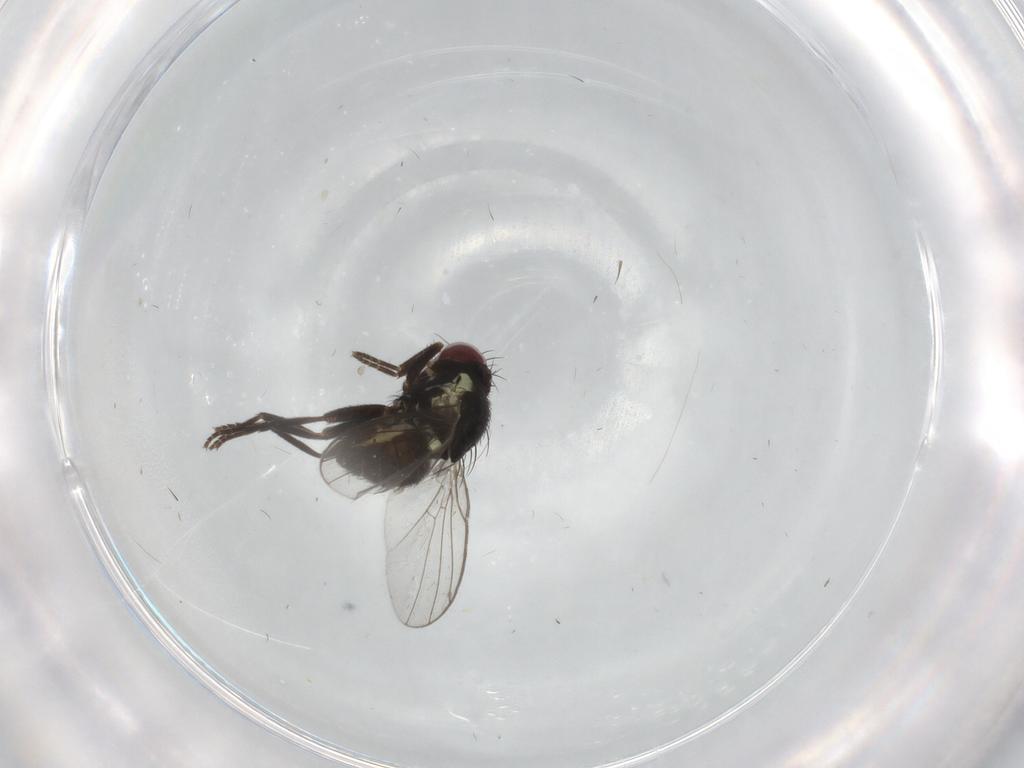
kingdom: Animalia
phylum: Arthropoda
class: Insecta
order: Diptera
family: Agromyzidae
